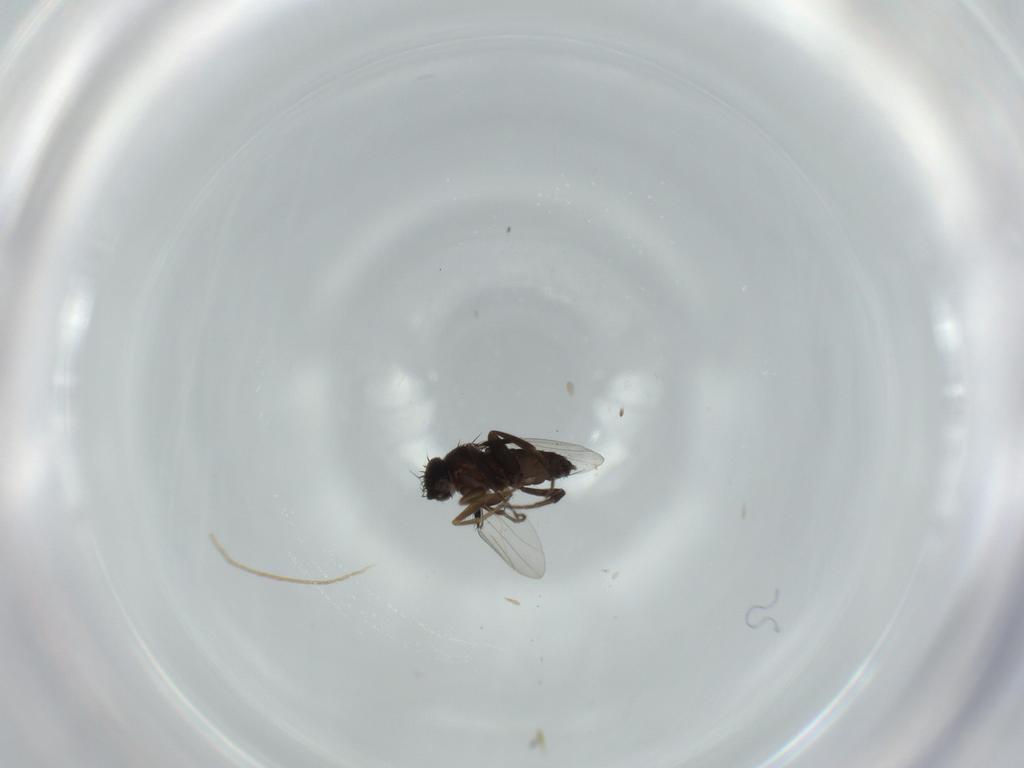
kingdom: Animalia
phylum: Arthropoda
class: Insecta
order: Diptera
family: Phoridae
